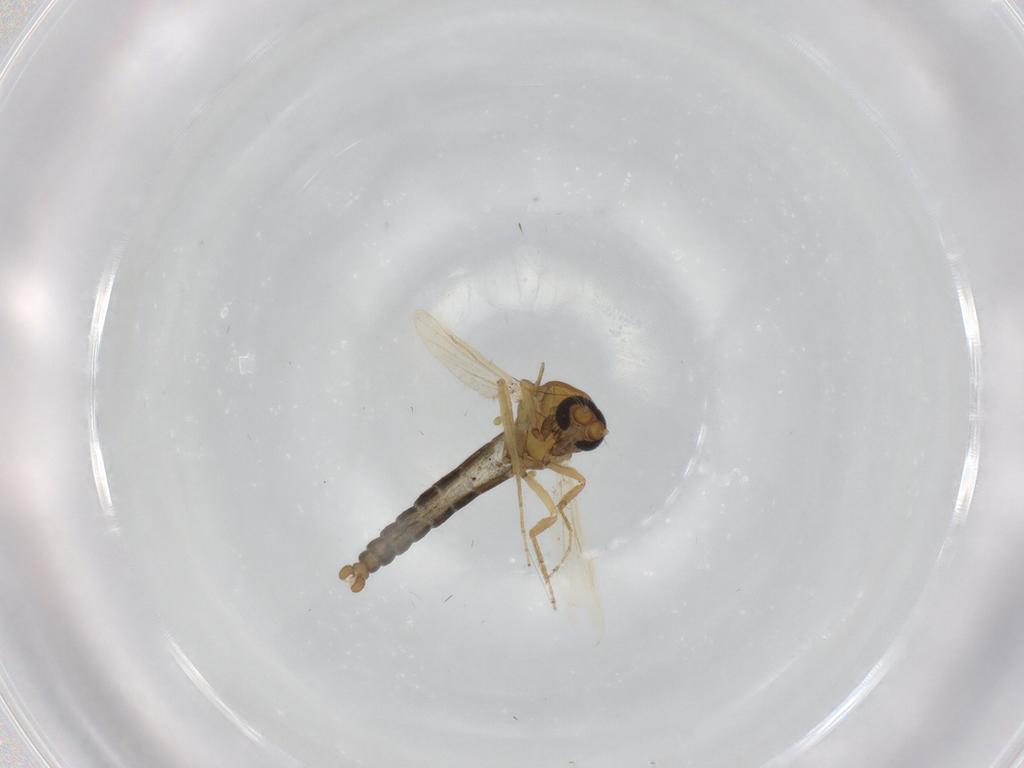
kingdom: Animalia
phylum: Arthropoda
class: Insecta
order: Diptera
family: Ceratopogonidae
